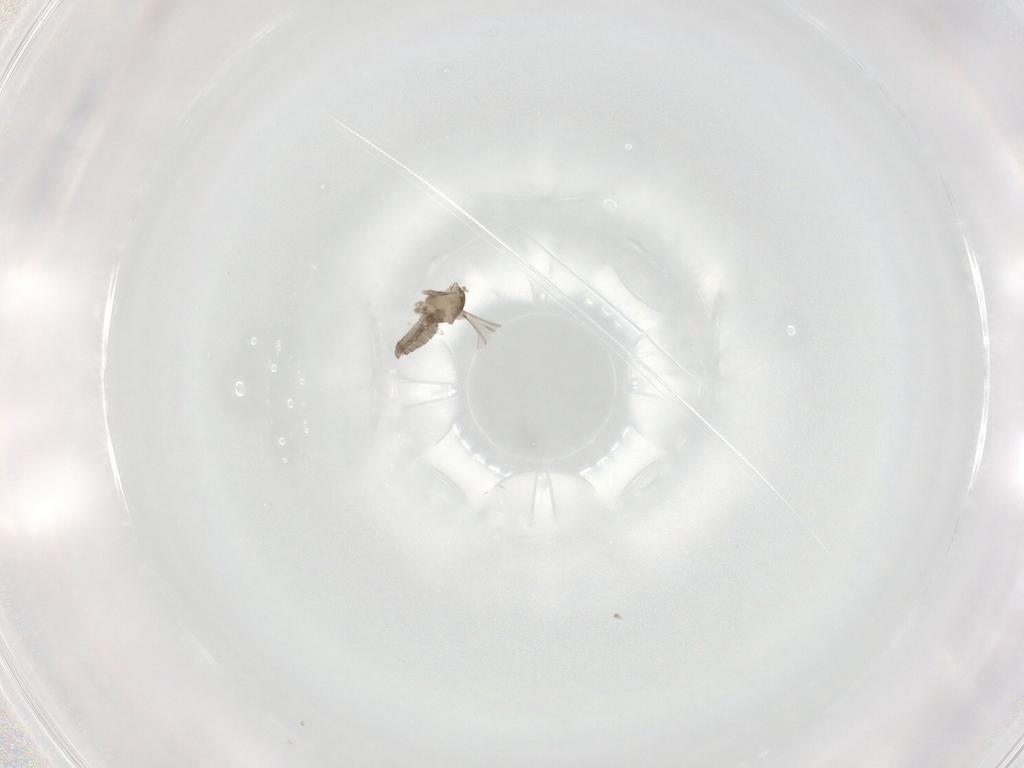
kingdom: Animalia
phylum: Arthropoda
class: Insecta
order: Diptera
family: Cecidomyiidae
